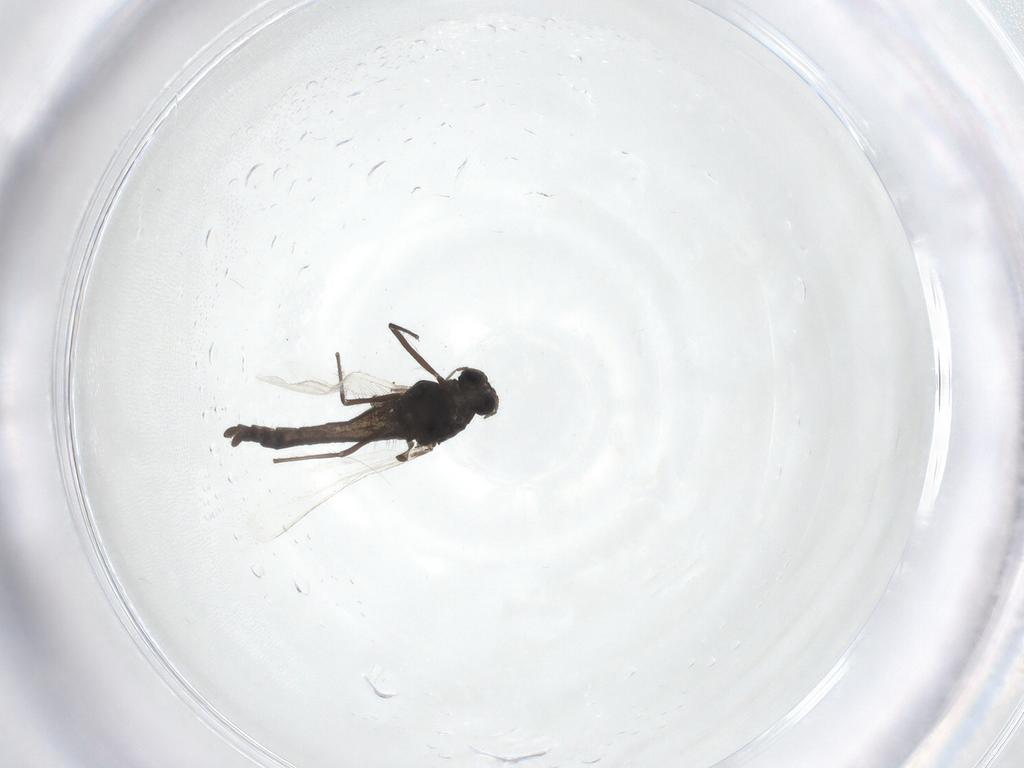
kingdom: Animalia
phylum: Arthropoda
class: Insecta
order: Diptera
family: Chironomidae
